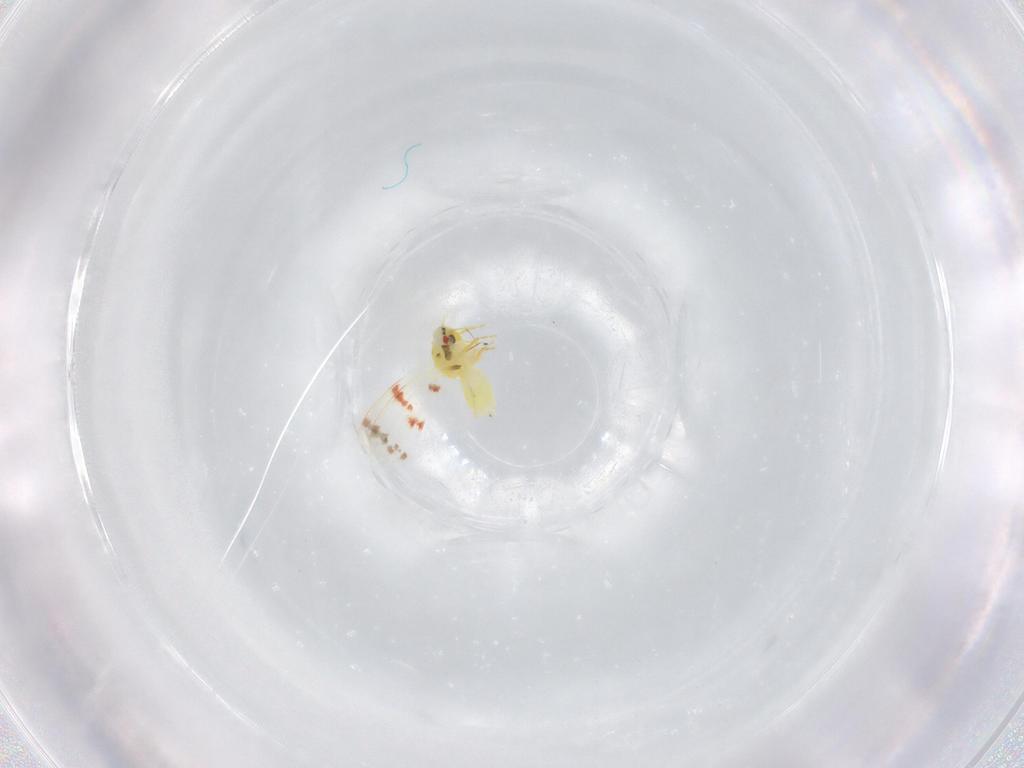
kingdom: Animalia
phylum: Arthropoda
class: Insecta
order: Hemiptera
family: Aleyrodidae
